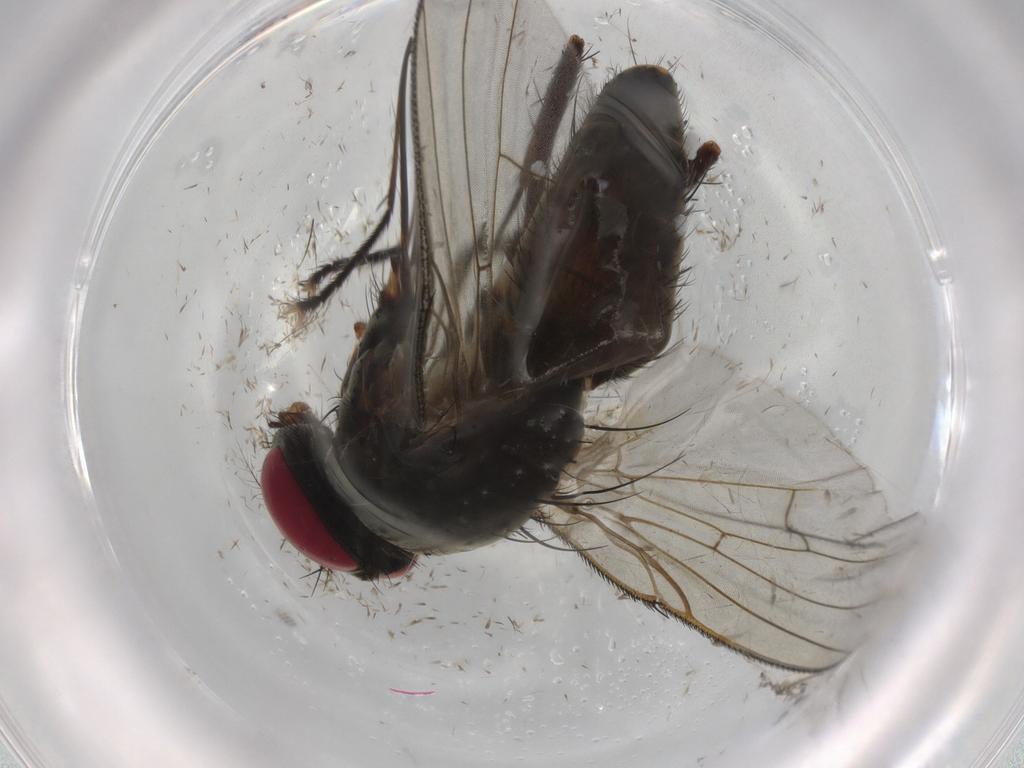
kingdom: Animalia
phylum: Arthropoda
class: Insecta
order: Diptera
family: Muscidae
